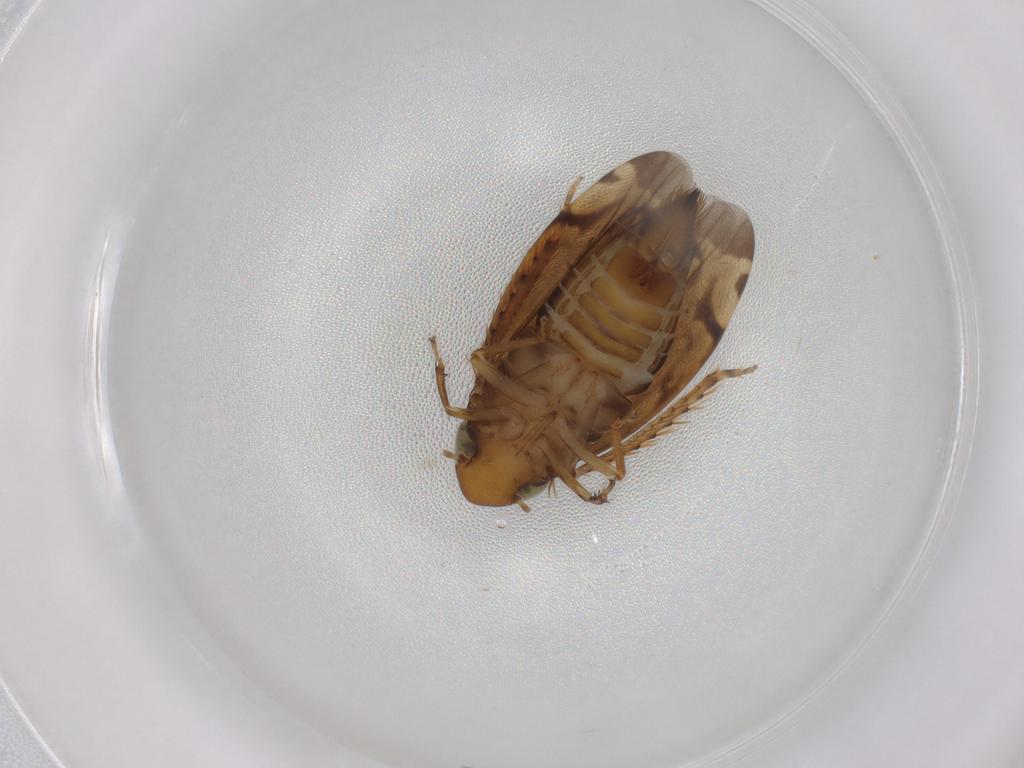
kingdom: Animalia
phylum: Arthropoda
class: Insecta
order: Hemiptera
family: Cicadellidae
